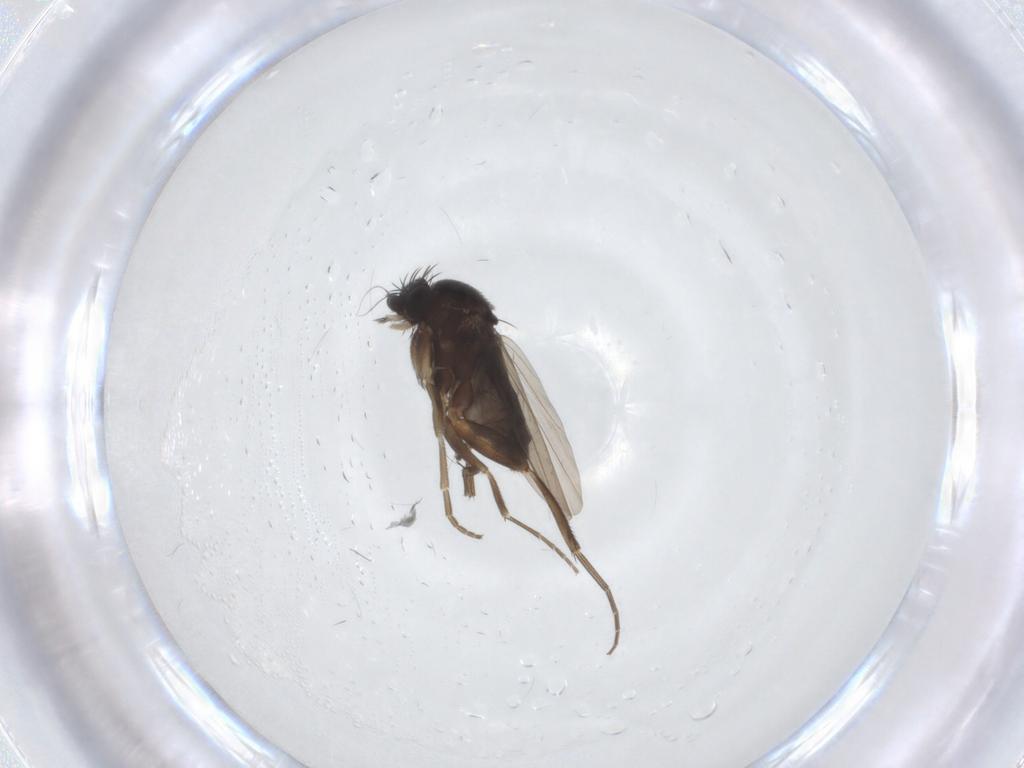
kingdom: Animalia
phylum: Arthropoda
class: Insecta
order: Diptera
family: Phoridae
